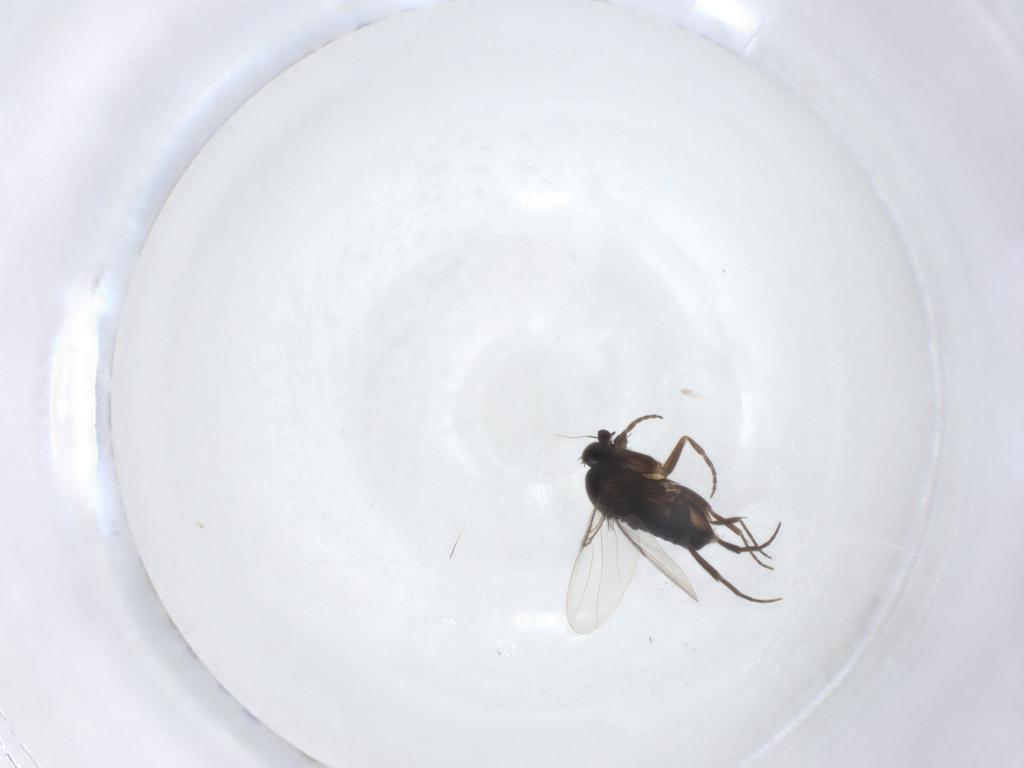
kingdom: Animalia
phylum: Arthropoda
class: Insecta
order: Diptera
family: Phoridae
